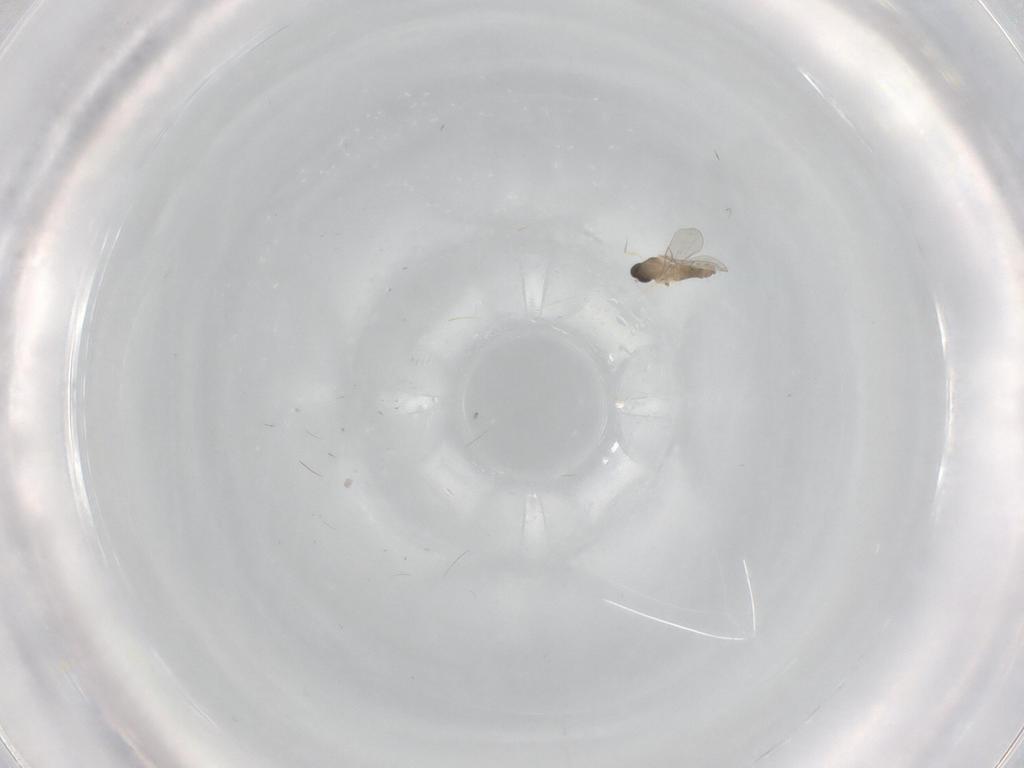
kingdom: Animalia
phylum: Arthropoda
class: Insecta
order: Diptera
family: Cecidomyiidae
